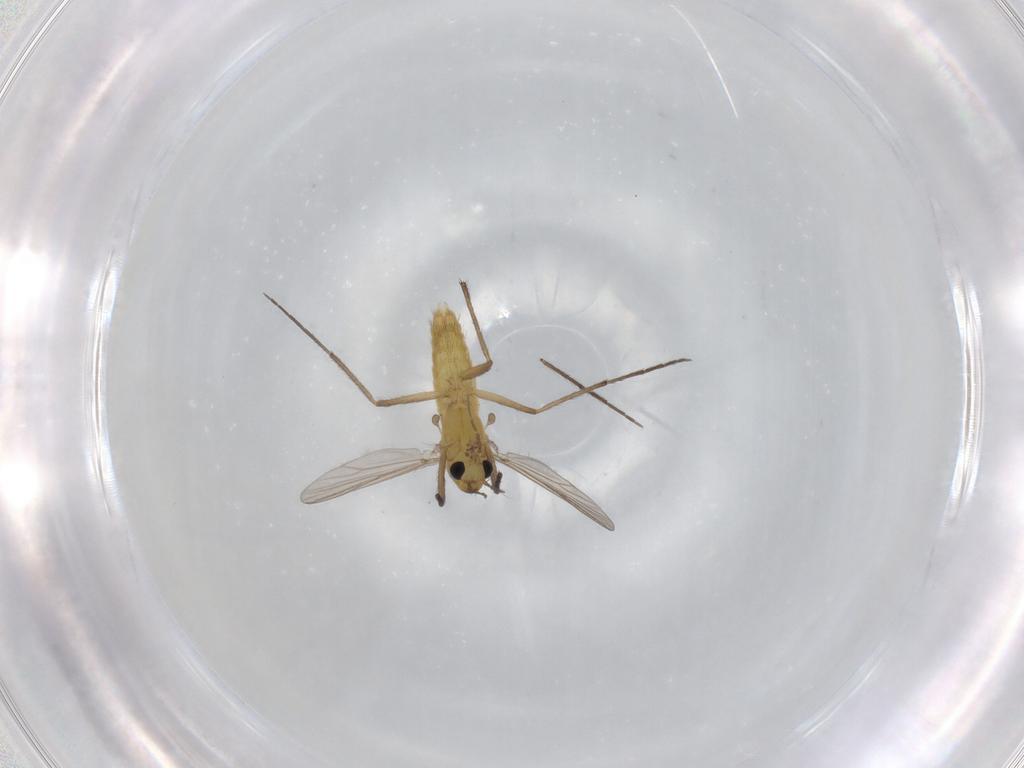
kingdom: Animalia
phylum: Arthropoda
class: Insecta
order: Diptera
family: Chironomidae
